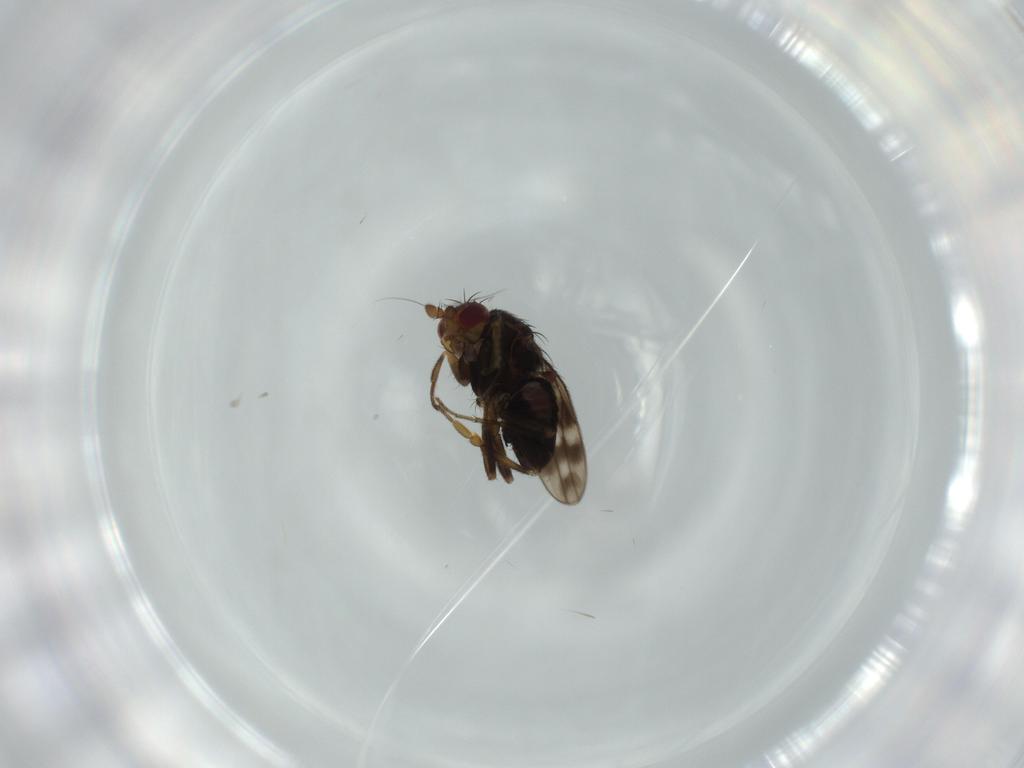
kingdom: Animalia
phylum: Arthropoda
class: Insecta
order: Diptera
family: Sphaeroceridae
